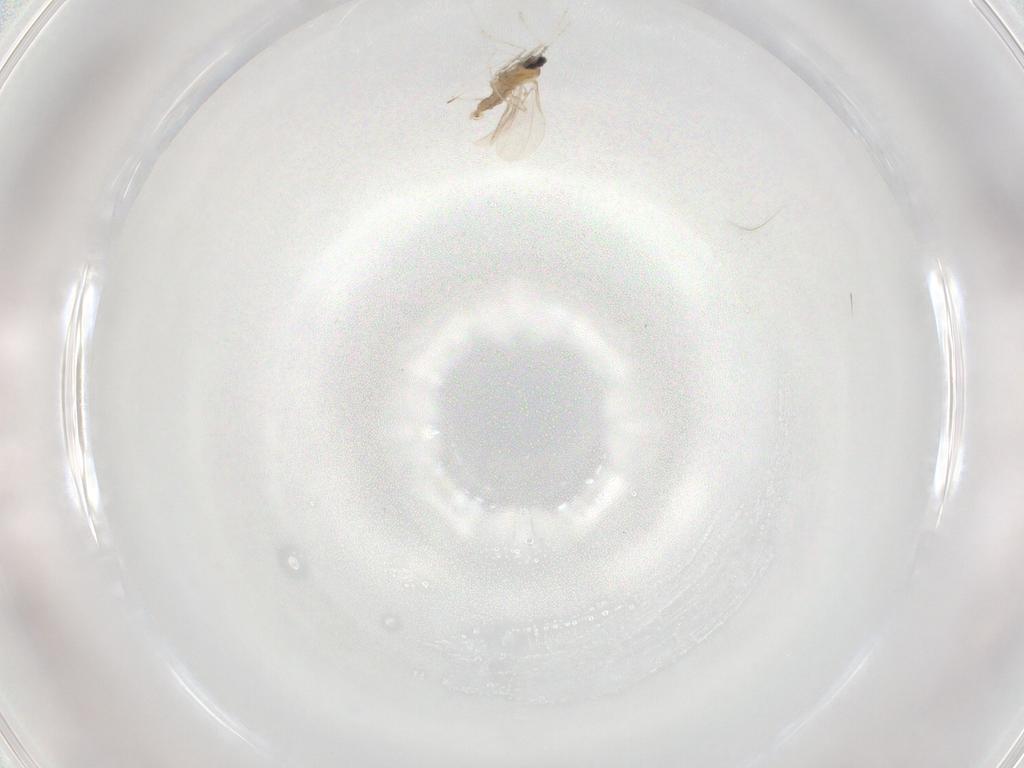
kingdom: Animalia
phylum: Arthropoda
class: Insecta
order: Diptera
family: Cecidomyiidae
